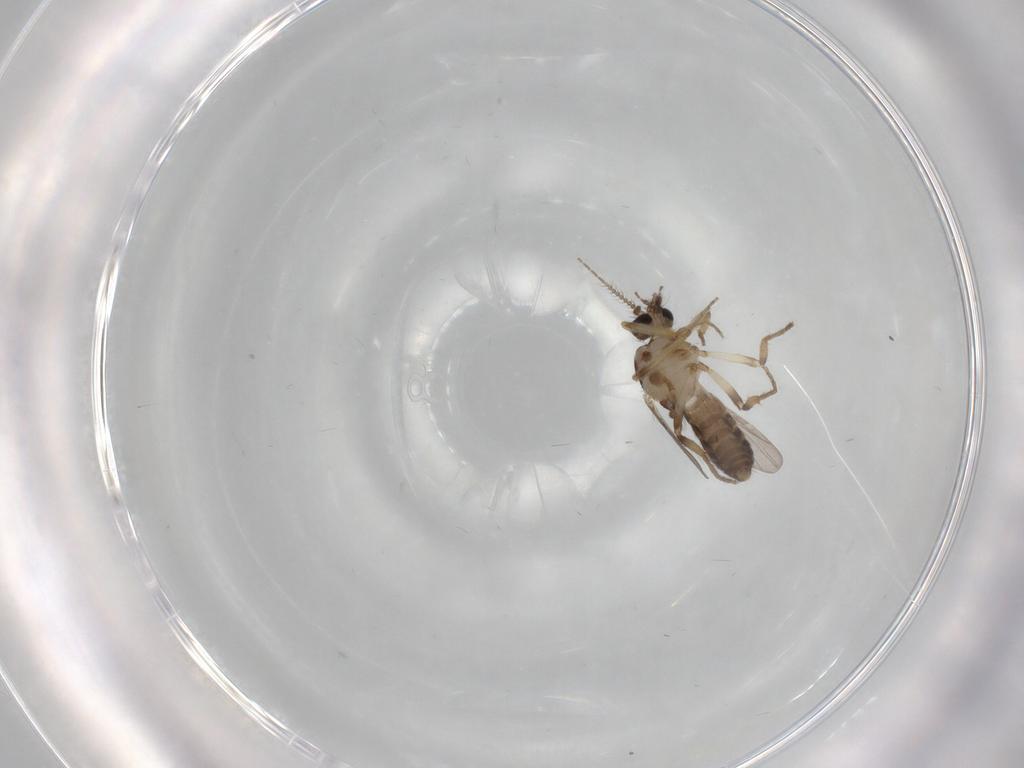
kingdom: Animalia
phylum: Arthropoda
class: Insecta
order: Diptera
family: Ceratopogonidae
